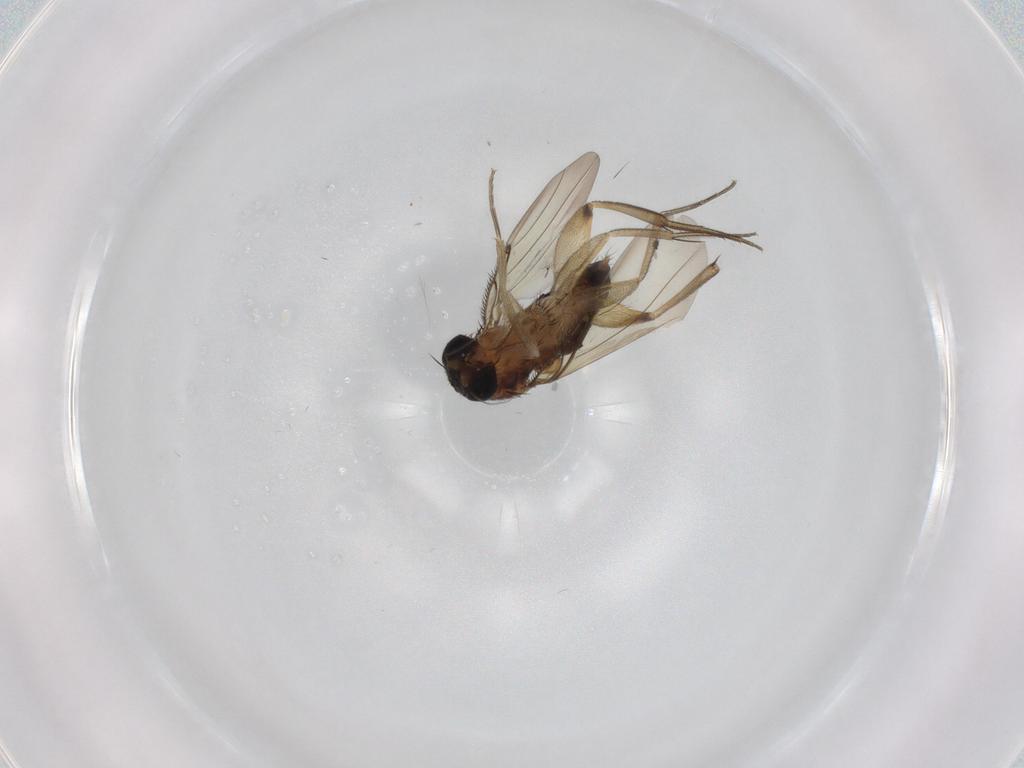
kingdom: Animalia
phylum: Arthropoda
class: Insecta
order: Diptera
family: Phoridae
